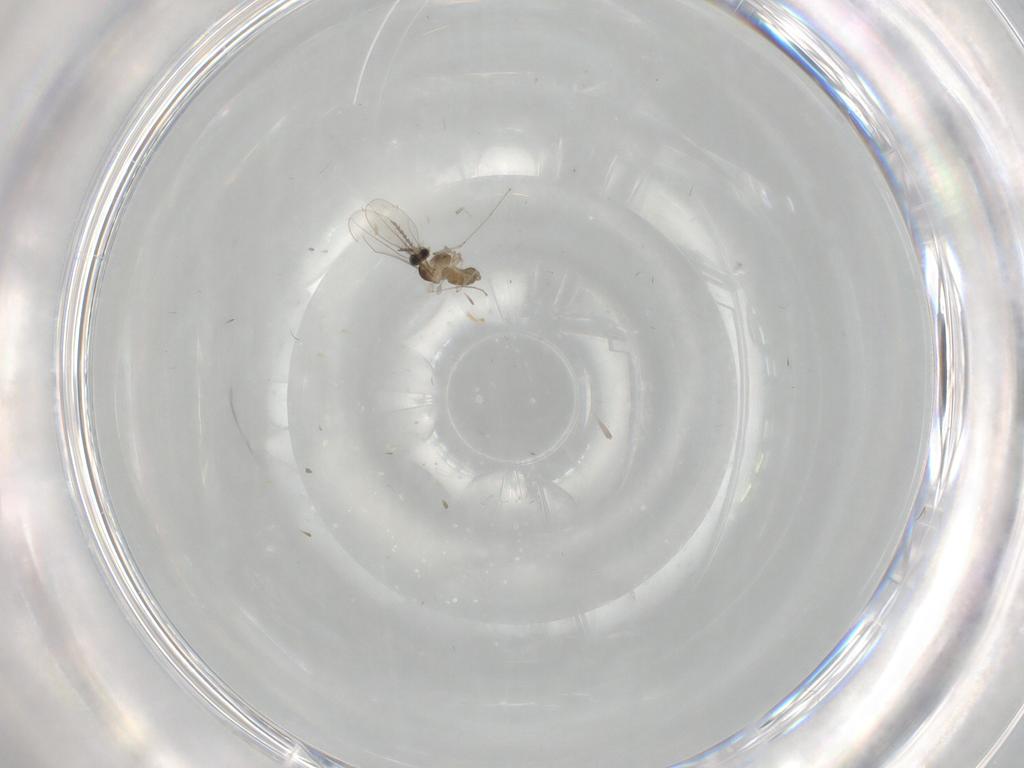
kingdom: Animalia
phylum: Arthropoda
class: Insecta
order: Diptera
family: Cecidomyiidae
